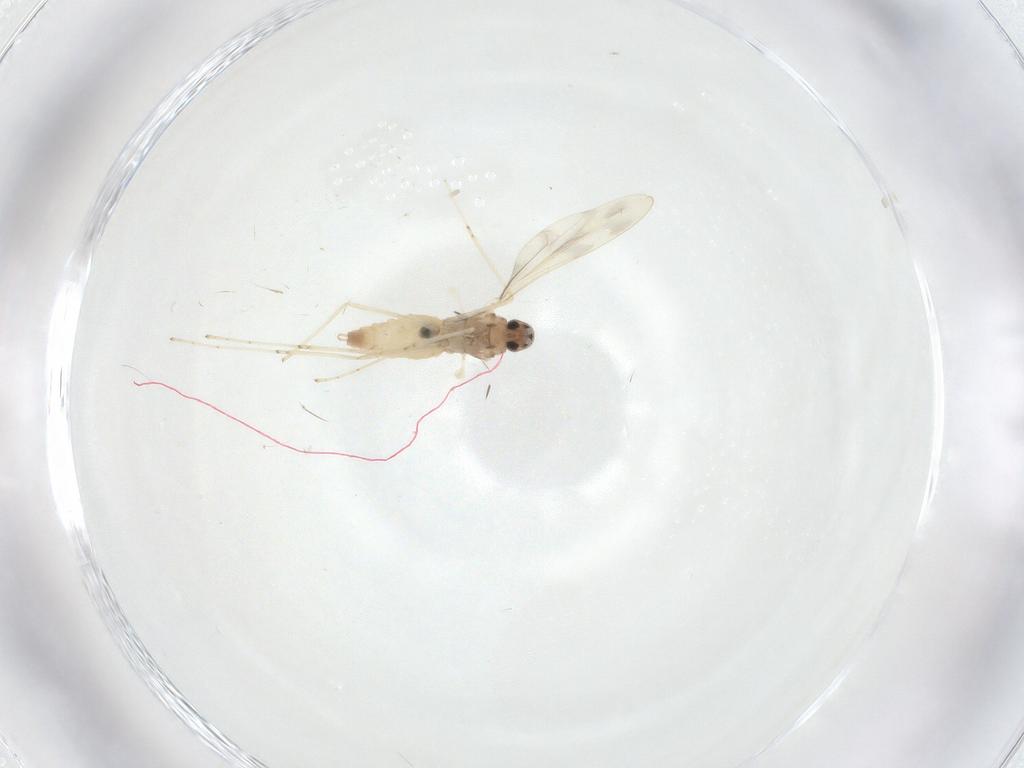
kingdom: Animalia
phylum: Arthropoda
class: Insecta
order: Diptera
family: Cecidomyiidae
